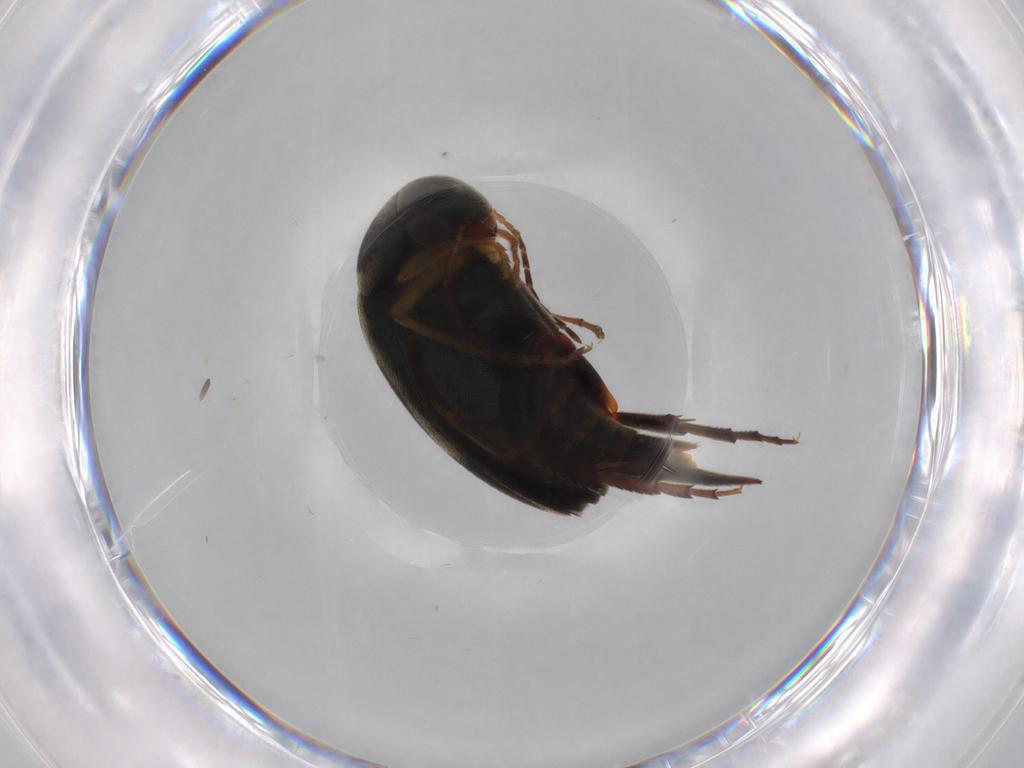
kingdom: Animalia
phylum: Arthropoda
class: Insecta
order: Coleoptera
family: Mordellidae
